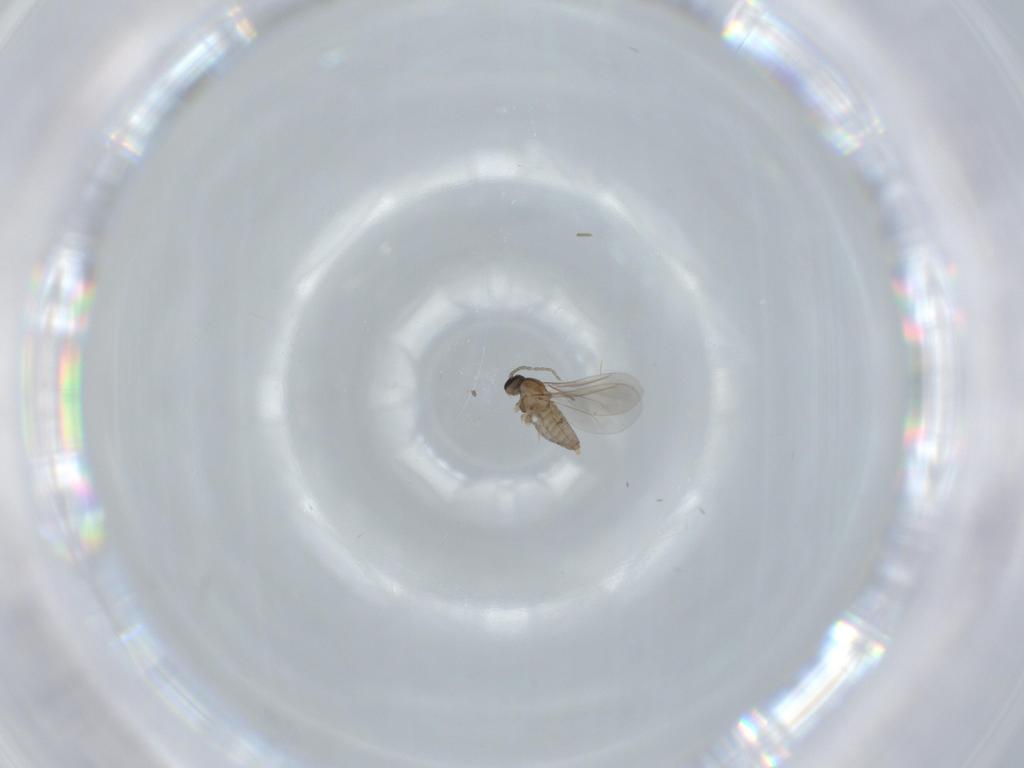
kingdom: Animalia
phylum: Arthropoda
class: Insecta
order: Diptera
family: Cecidomyiidae
